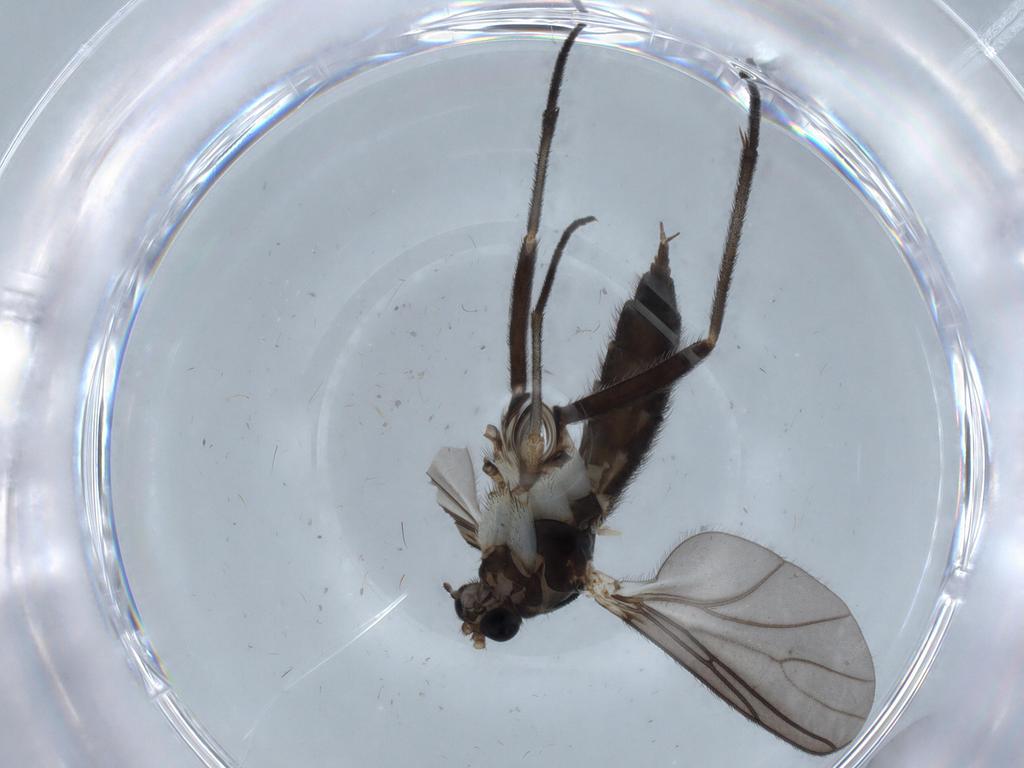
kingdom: Animalia
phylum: Arthropoda
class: Insecta
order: Diptera
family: Sciaridae
